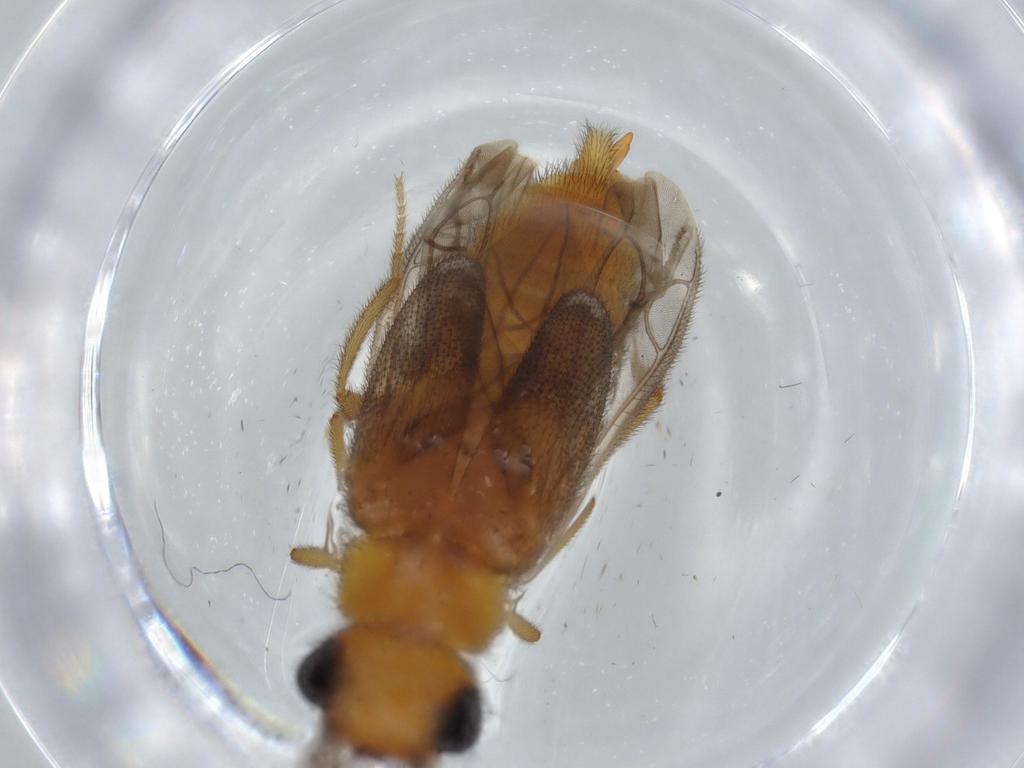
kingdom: Animalia
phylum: Arthropoda
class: Insecta
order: Coleoptera
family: Phengodidae
